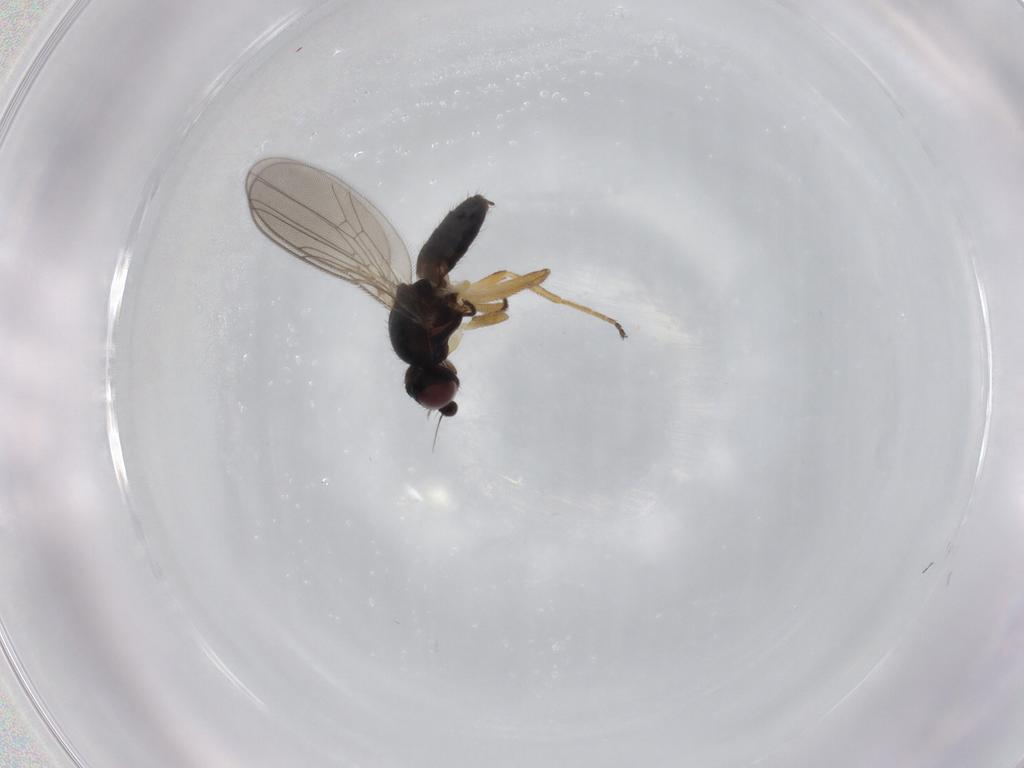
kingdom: Animalia
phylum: Arthropoda
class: Insecta
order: Diptera
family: Chloropidae
